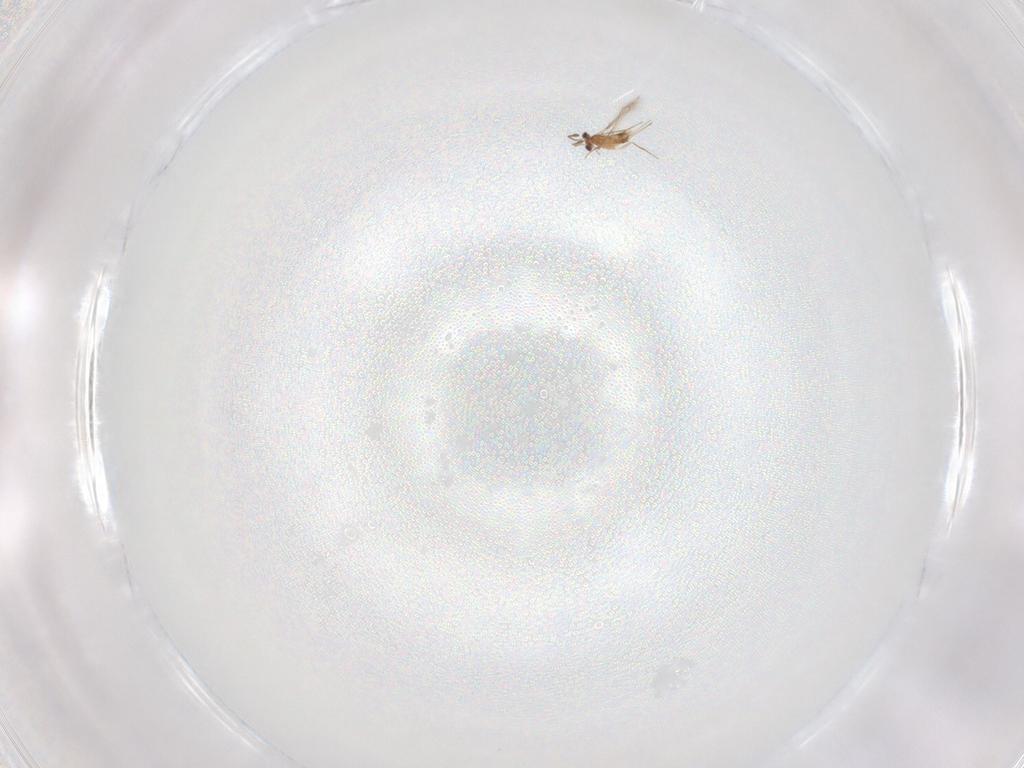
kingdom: Animalia
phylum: Arthropoda
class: Insecta
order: Hymenoptera
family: Mymaridae
